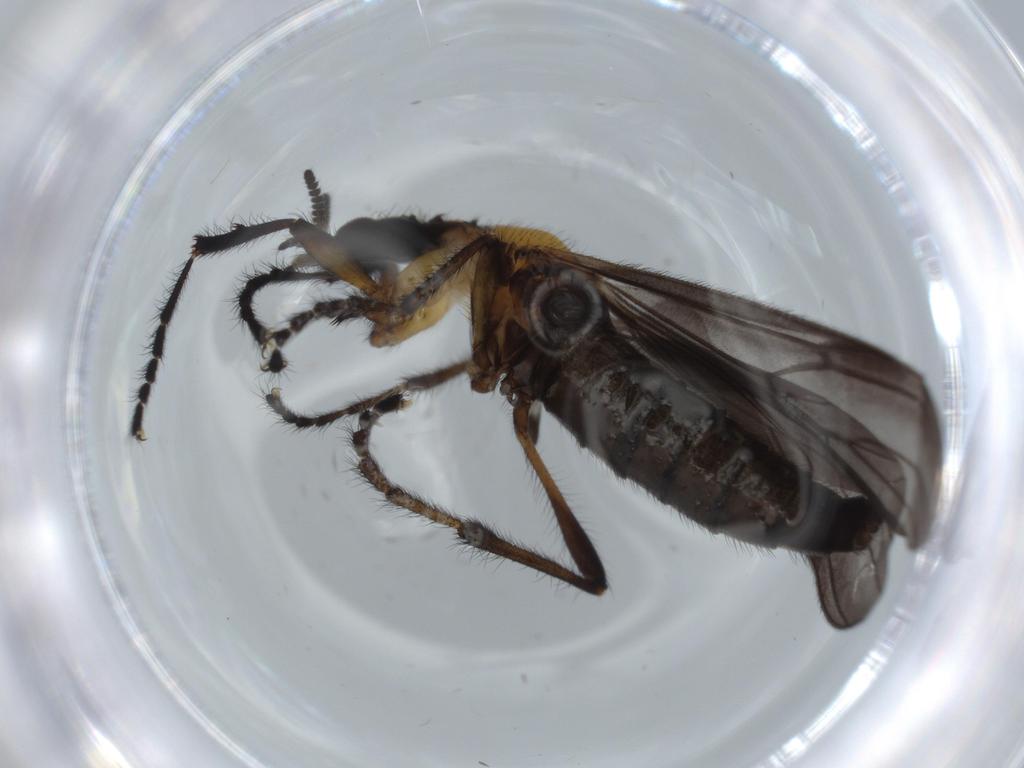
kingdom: Animalia
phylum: Arthropoda
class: Insecta
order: Diptera
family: Bibionidae
